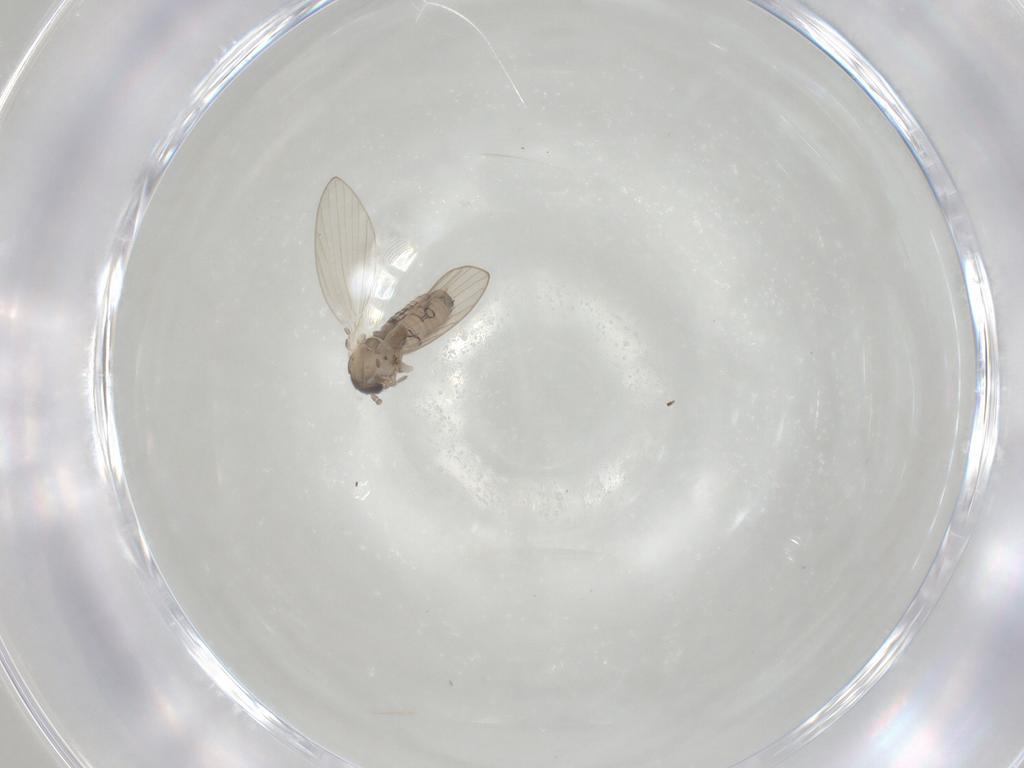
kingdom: Animalia
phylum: Arthropoda
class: Insecta
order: Diptera
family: Psychodidae
